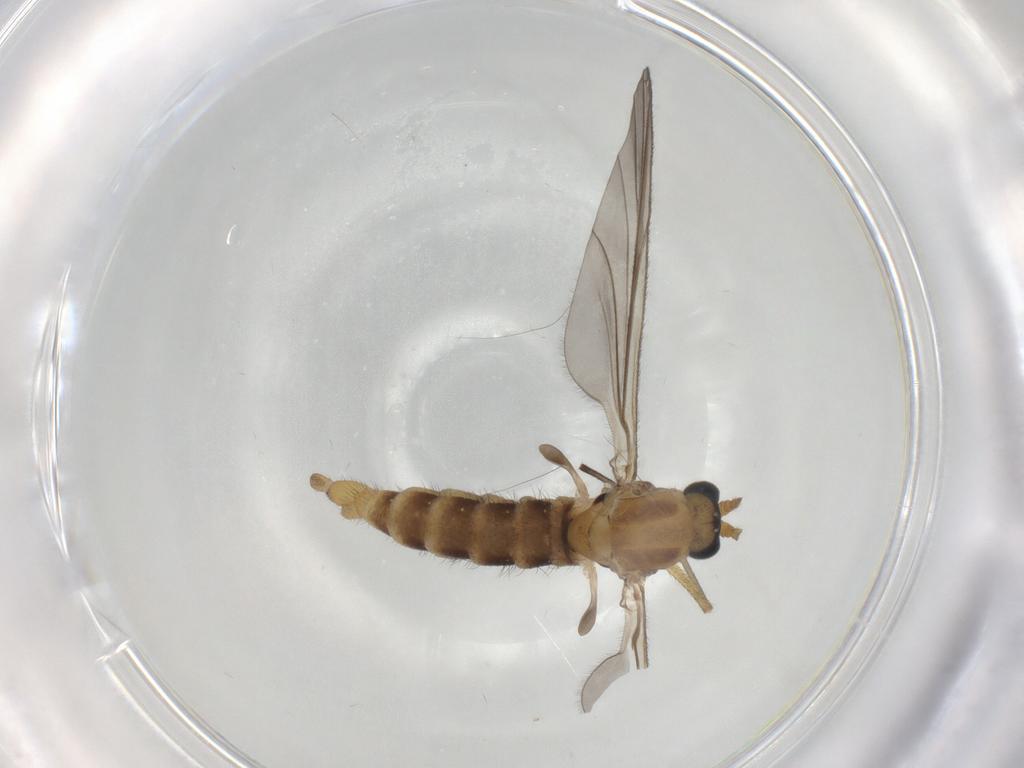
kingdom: Animalia
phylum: Arthropoda
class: Insecta
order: Diptera
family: Sciaridae
